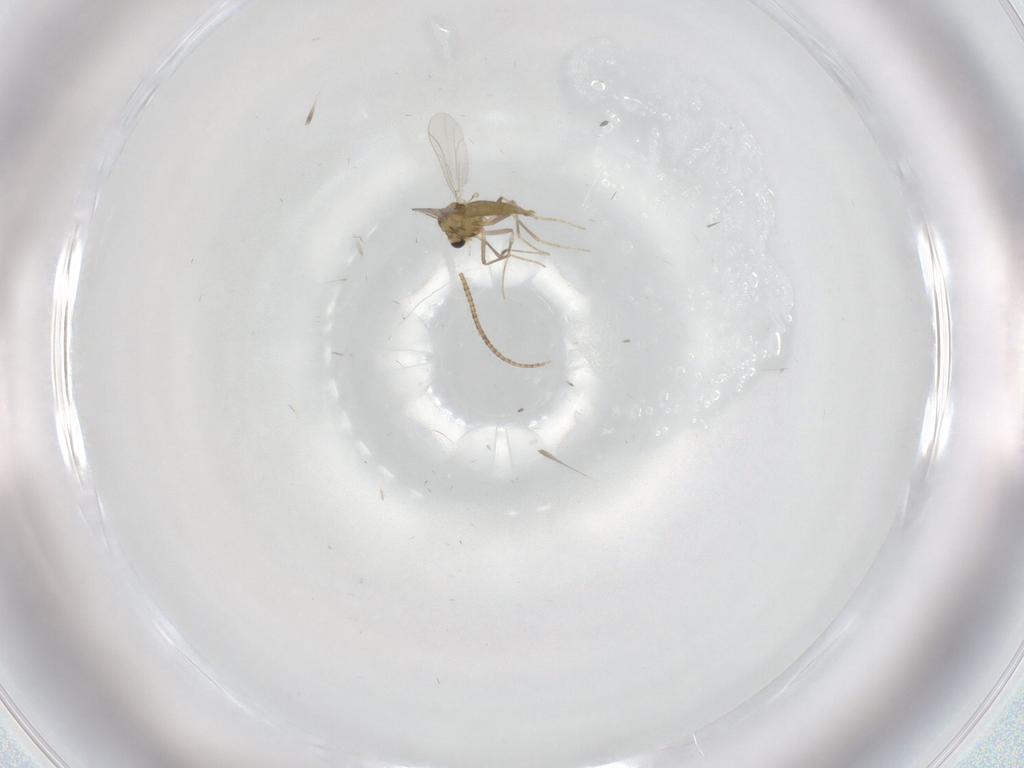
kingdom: Animalia
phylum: Arthropoda
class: Insecta
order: Diptera
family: Chironomidae
